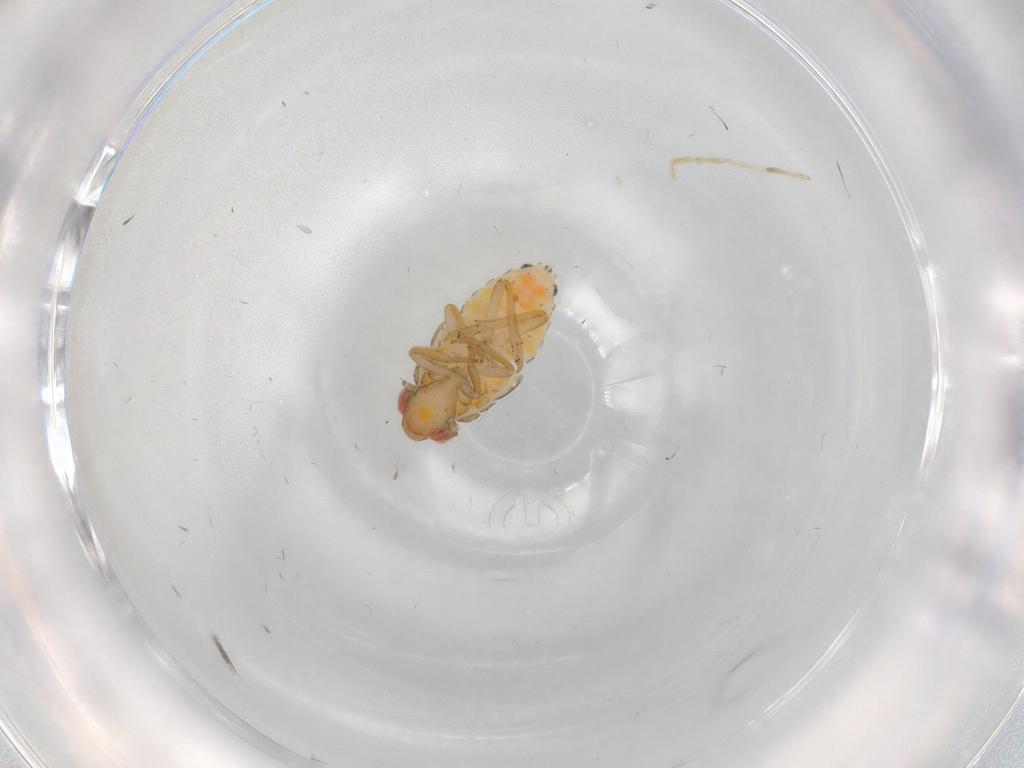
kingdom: Animalia
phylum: Arthropoda
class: Insecta
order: Hemiptera
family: Fulgoroidea_incertae_sedis
